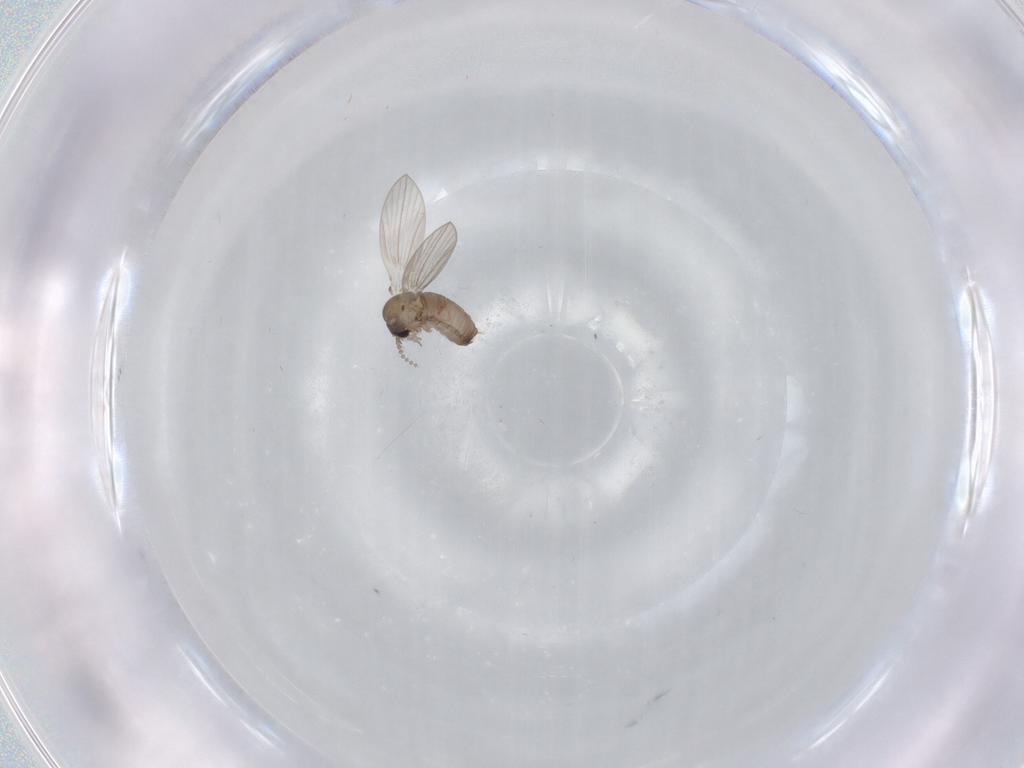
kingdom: Animalia
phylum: Arthropoda
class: Insecta
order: Diptera
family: Psychodidae
